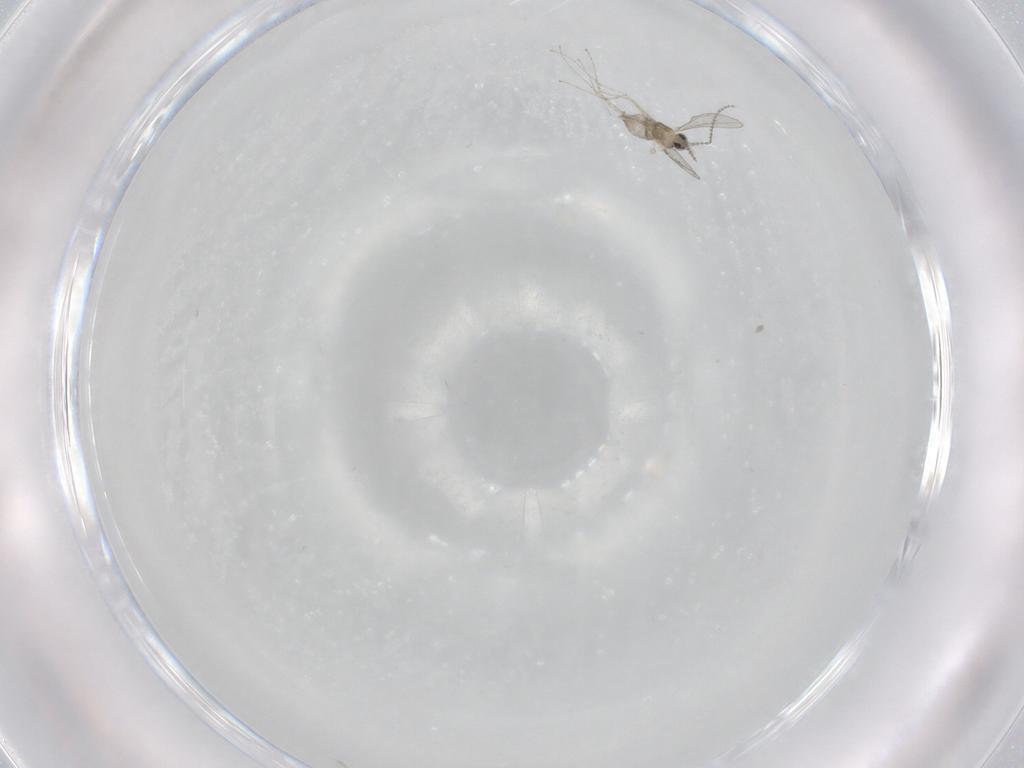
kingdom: Animalia
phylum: Arthropoda
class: Insecta
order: Diptera
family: Cecidomyiidae
